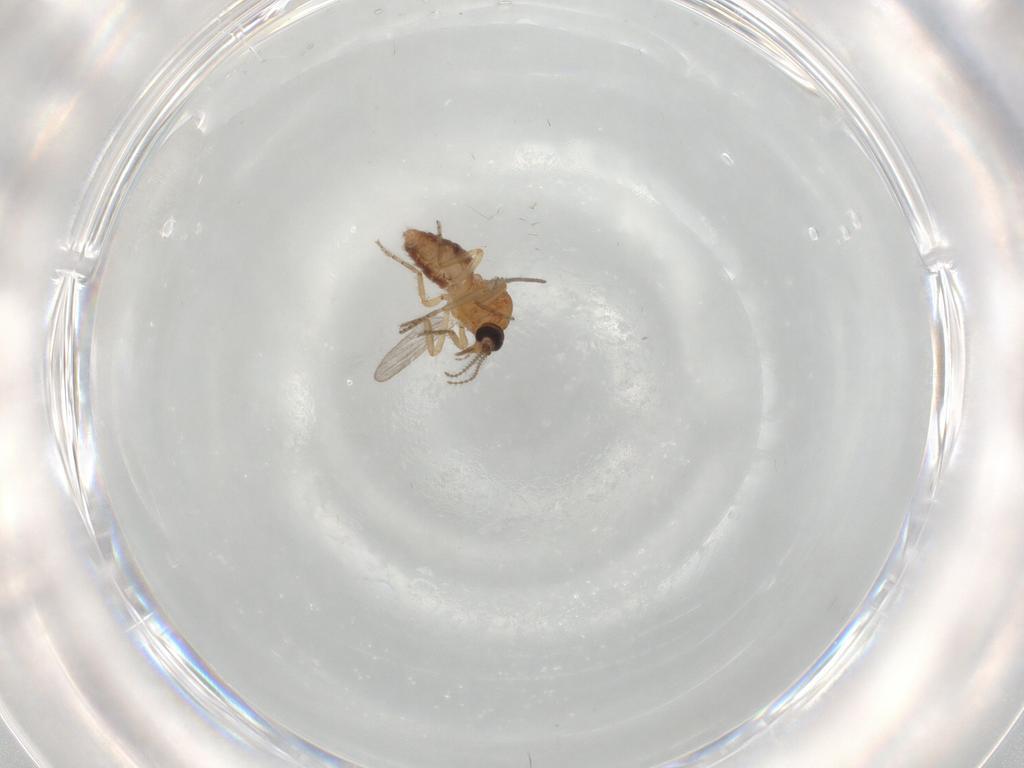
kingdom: Animalia
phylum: Arthropoda
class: Insecta
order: Diptera
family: Ceratopogonidae
